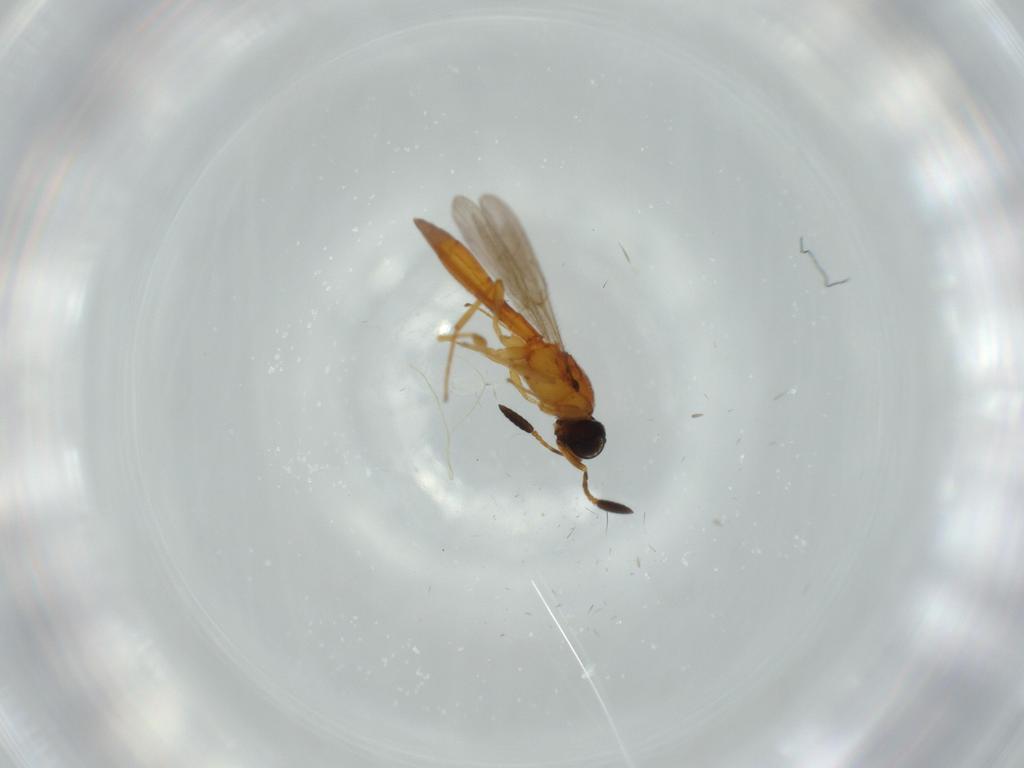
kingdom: Animalia
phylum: Arthropoda
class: Insecta
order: Hymenoptera
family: Scelionidae
